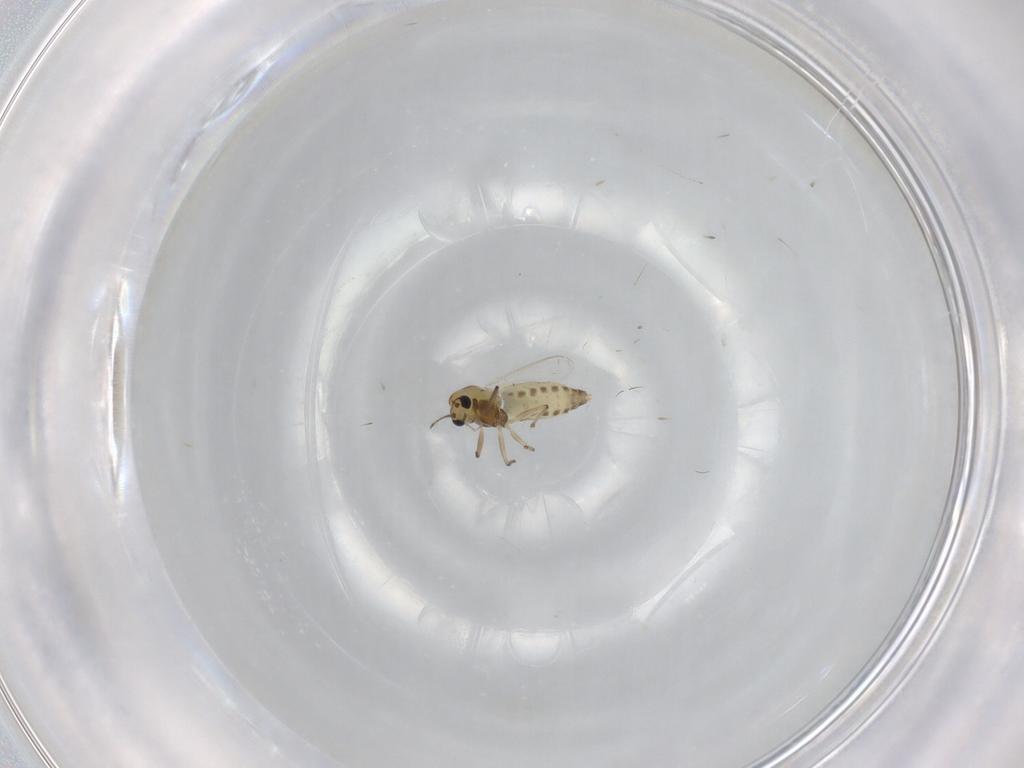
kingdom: Animalia
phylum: Arthropoda
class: Insecta
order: Diptera
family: Chironomidae
